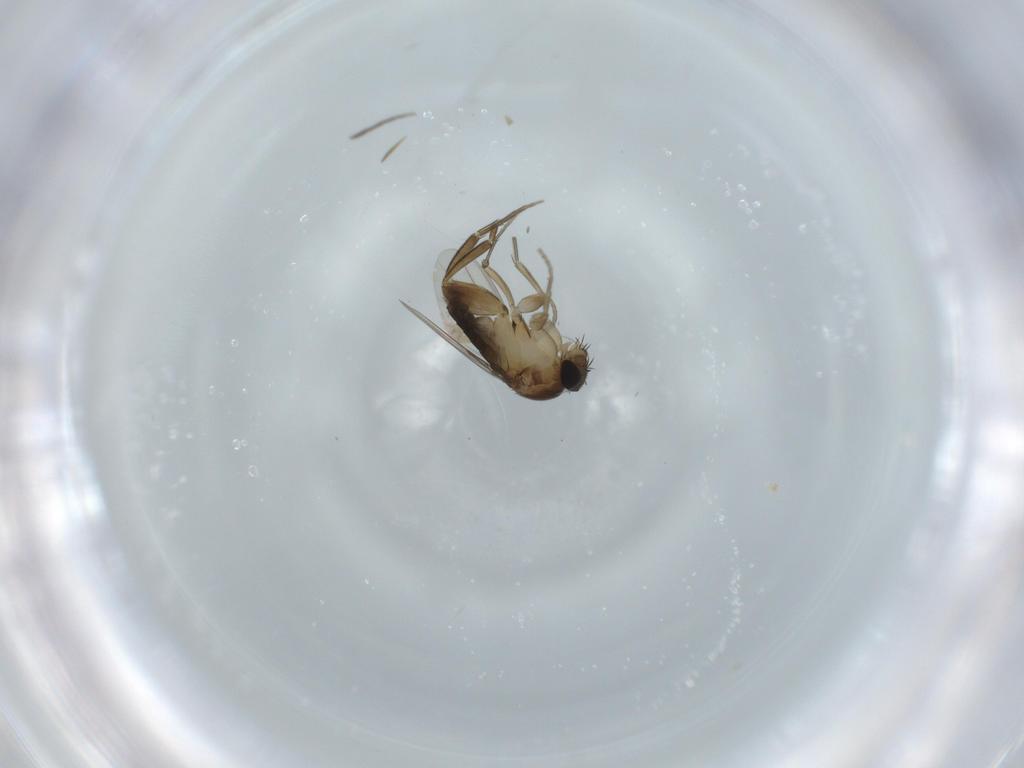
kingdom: Animalia
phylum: Arthropoda
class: Insecta
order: Diptera
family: Phoridae
